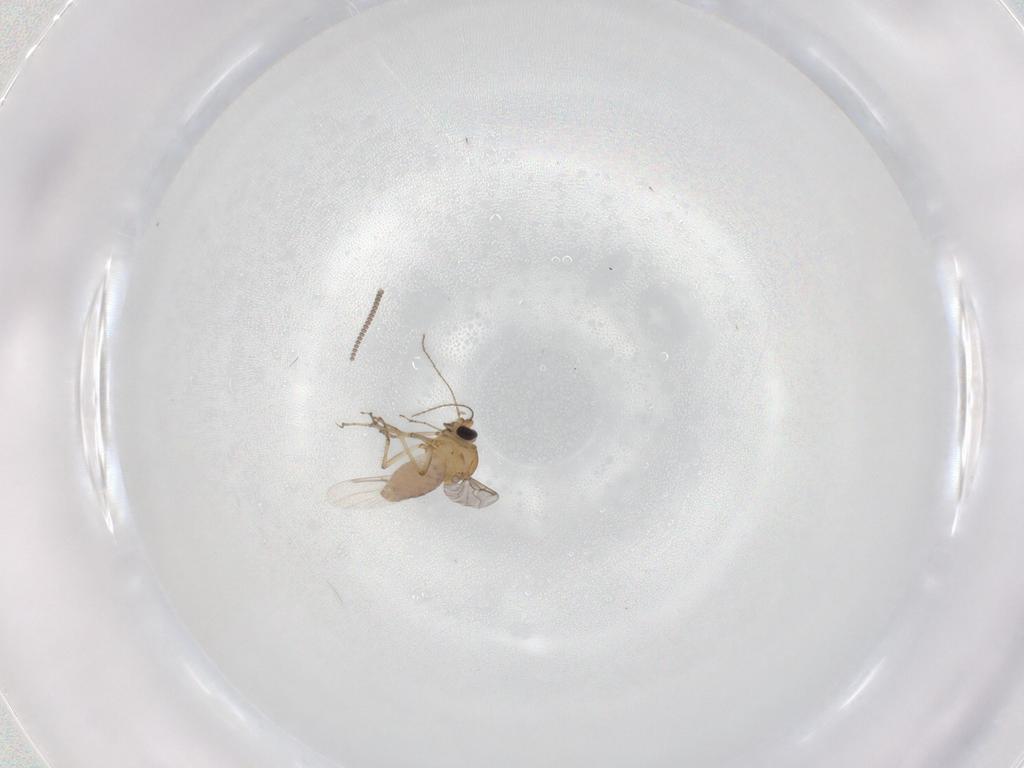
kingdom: Animalia
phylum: Arthropoda
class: Insecta
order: Diptera
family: Cecidomyiidae
